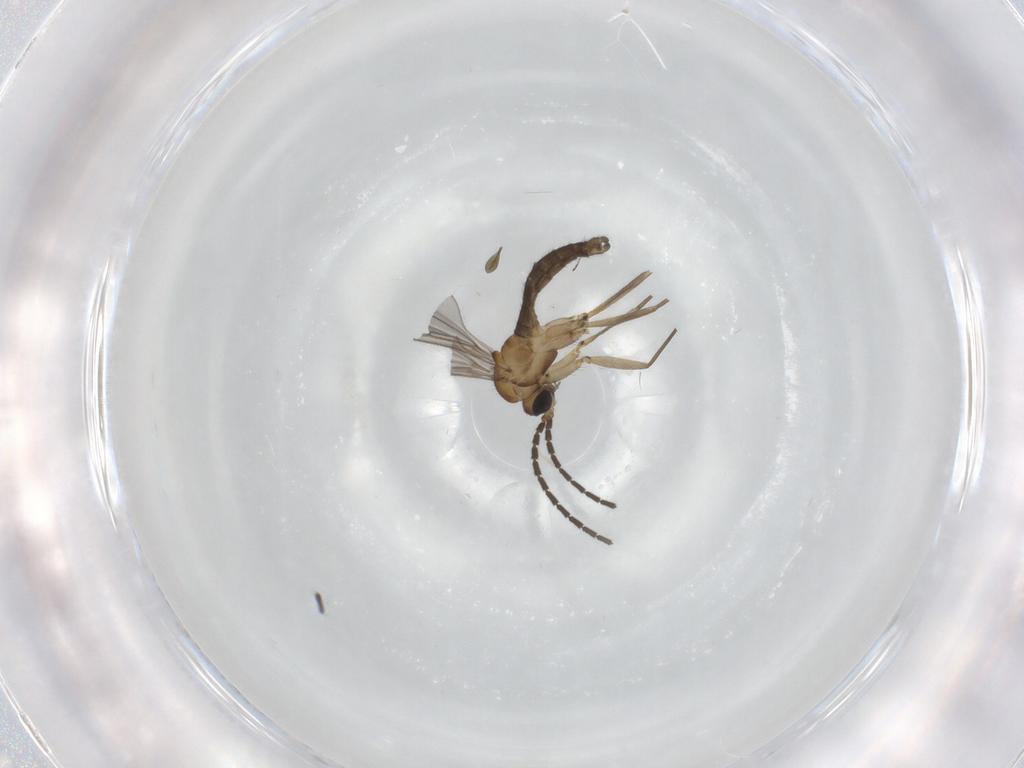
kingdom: Animalia
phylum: Arthropoda
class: Insecta
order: Diptera
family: Sciaridae
